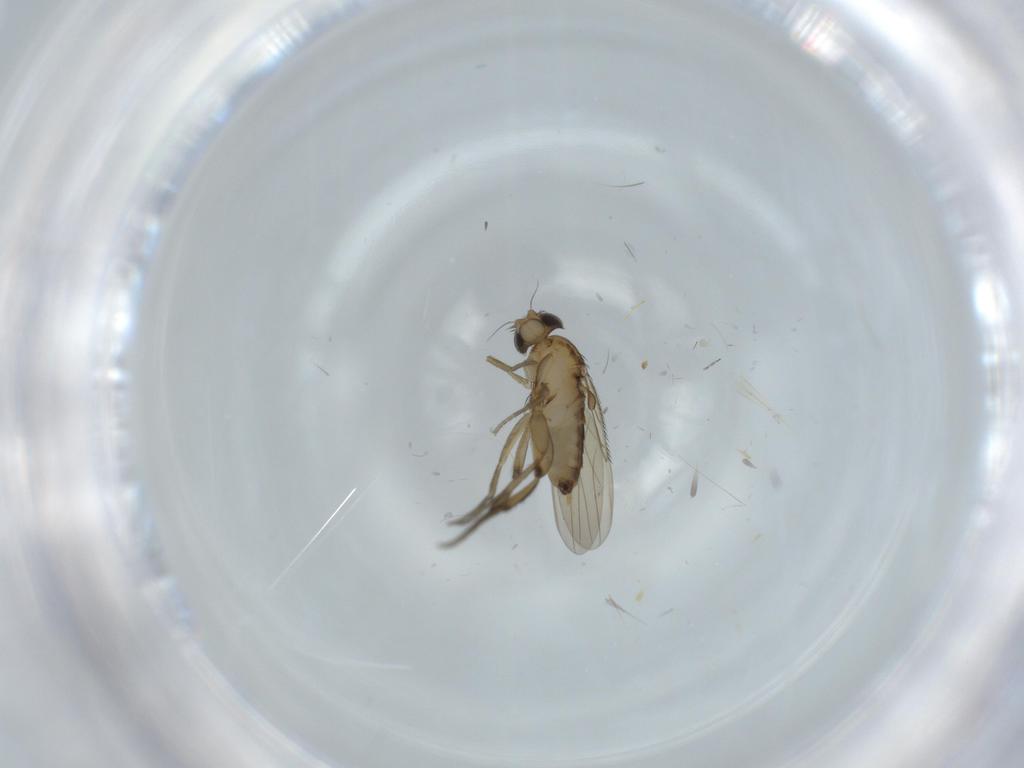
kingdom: Animalia
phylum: Arthropoda
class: Insecta
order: Diptera
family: Phoridae
